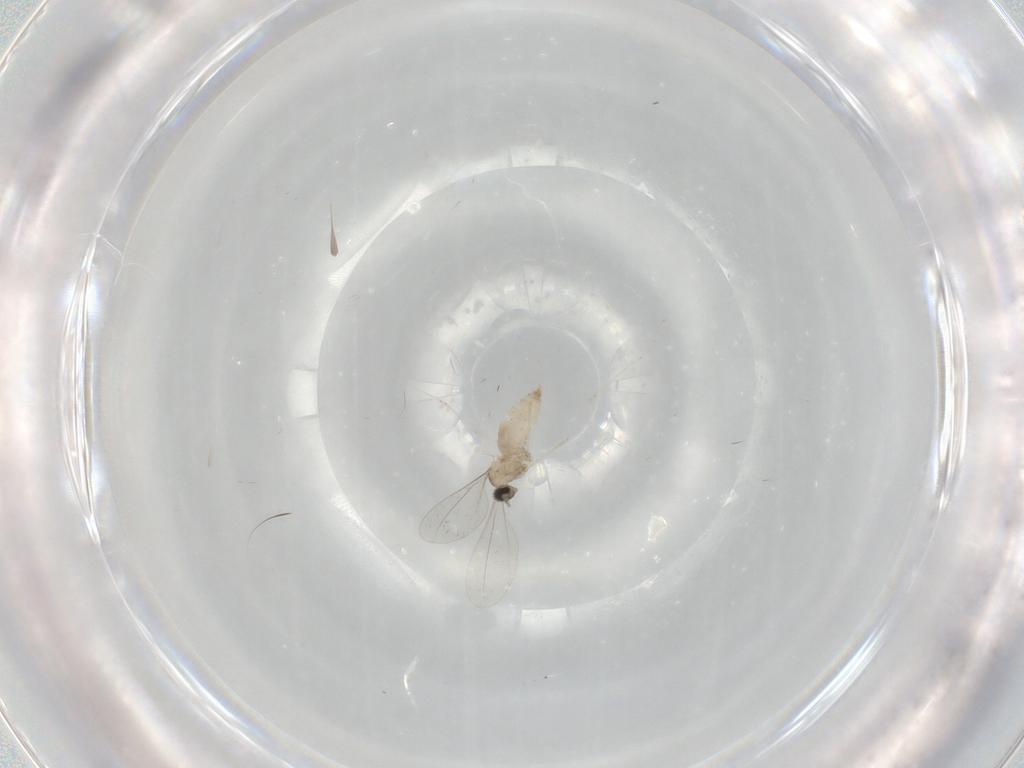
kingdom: Animalia
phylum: Arthropoda
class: Insecta
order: Diptera
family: Cecidomyiidae
